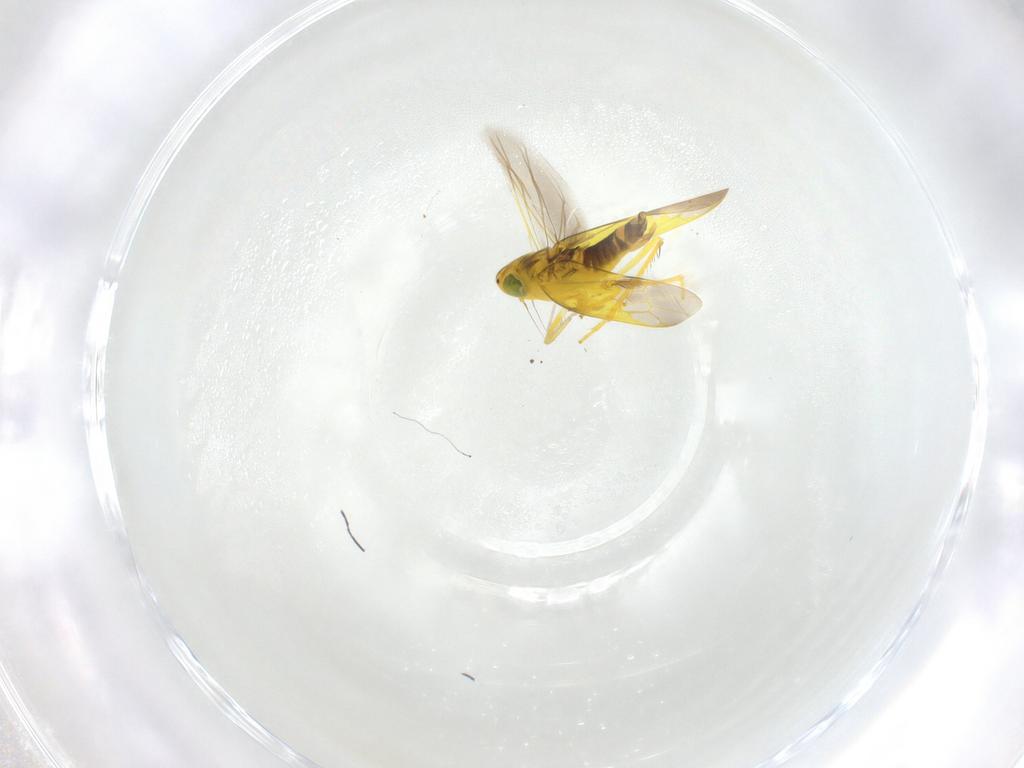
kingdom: Animalia
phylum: Arthropoda
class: Insecta
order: Hemiptera
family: Cicadellidae
